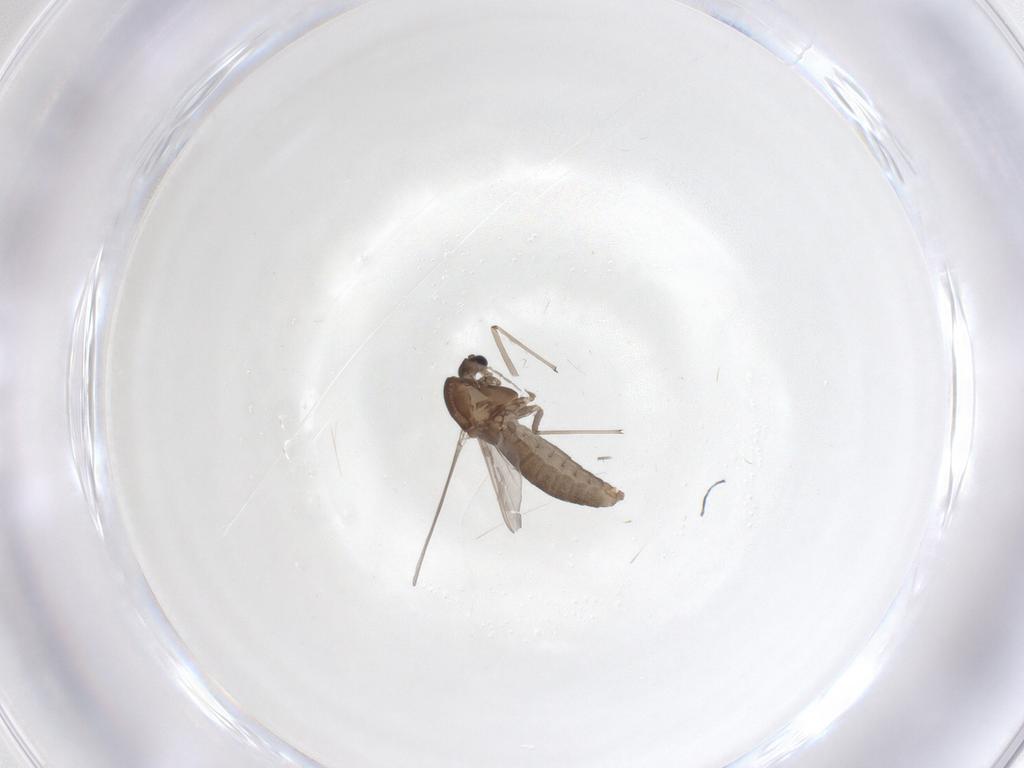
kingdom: Animalia
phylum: Arthropoda
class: Insecta
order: Diptera
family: Chironomidae
